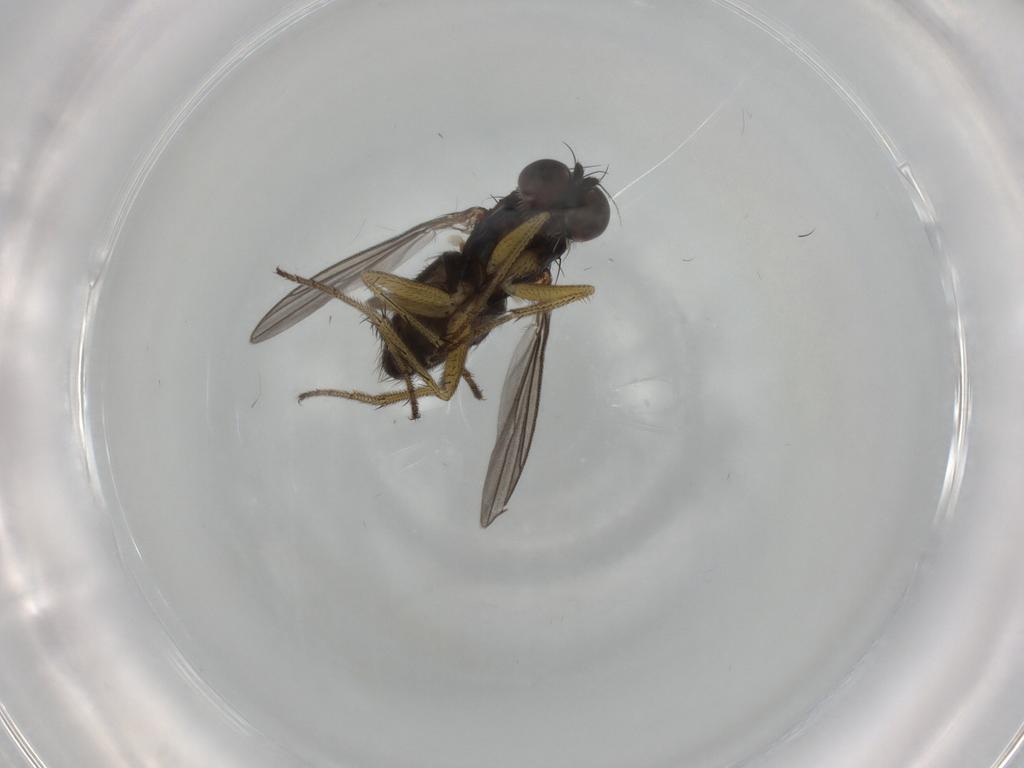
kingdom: Animalia
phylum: Arthropoda
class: Insecta
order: Diptera
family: Dolichopodidae
